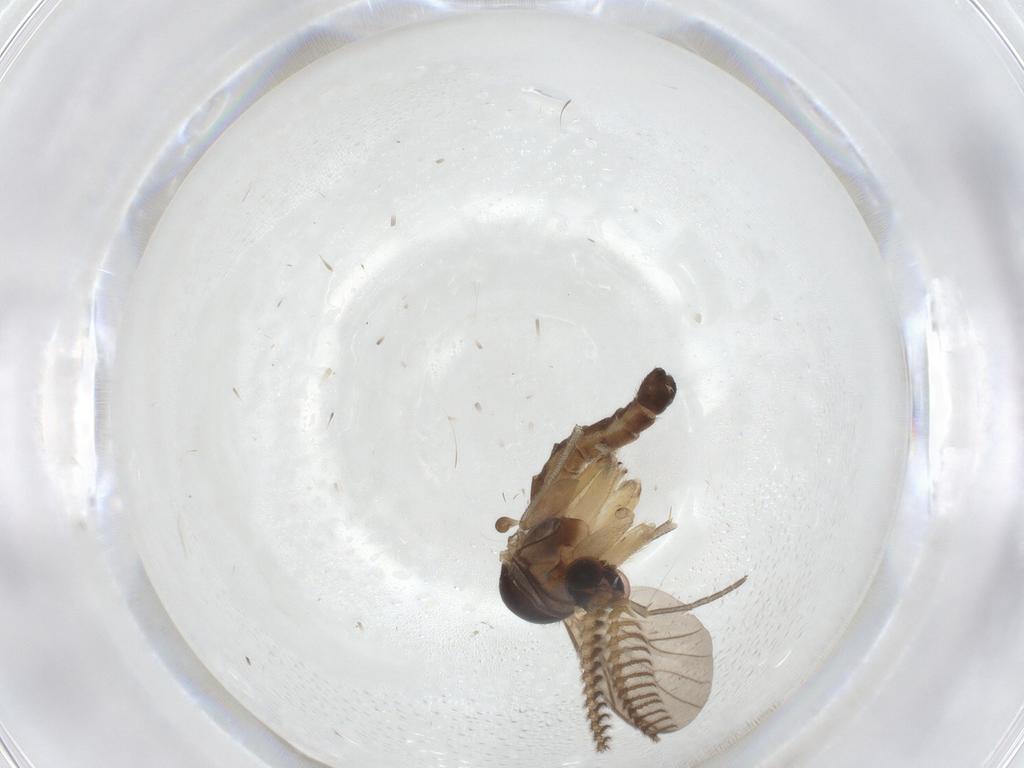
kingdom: Animalia
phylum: Arthropoda
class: Insecta
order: Diptera
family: Mycetophilidae
